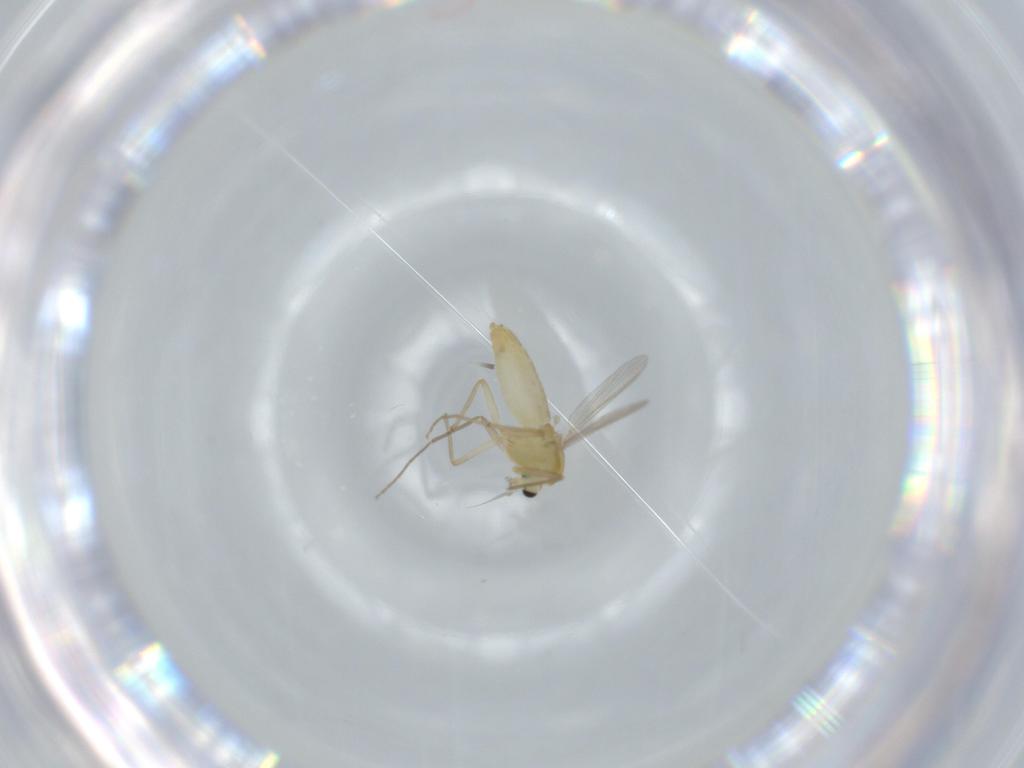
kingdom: Animalia
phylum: Arthropoda
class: Insecta
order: Diptera
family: Chironomidae
